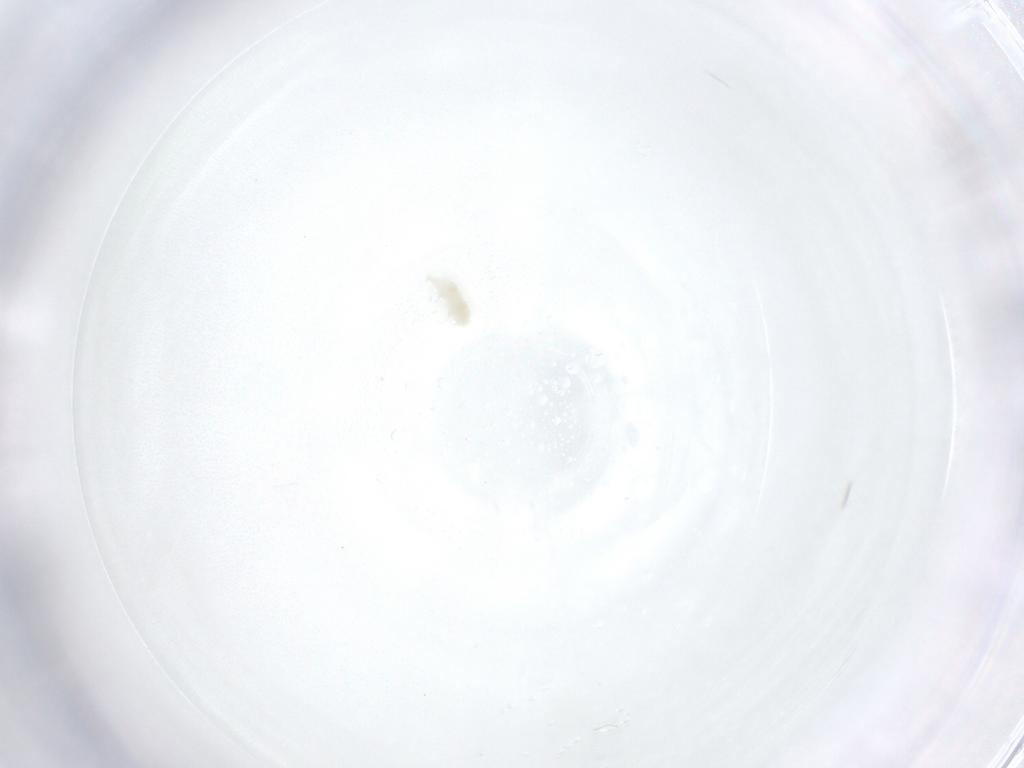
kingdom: Animalia
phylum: Arthropoda
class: Arachnida
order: Trombidiformes
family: Stigmaeidae
